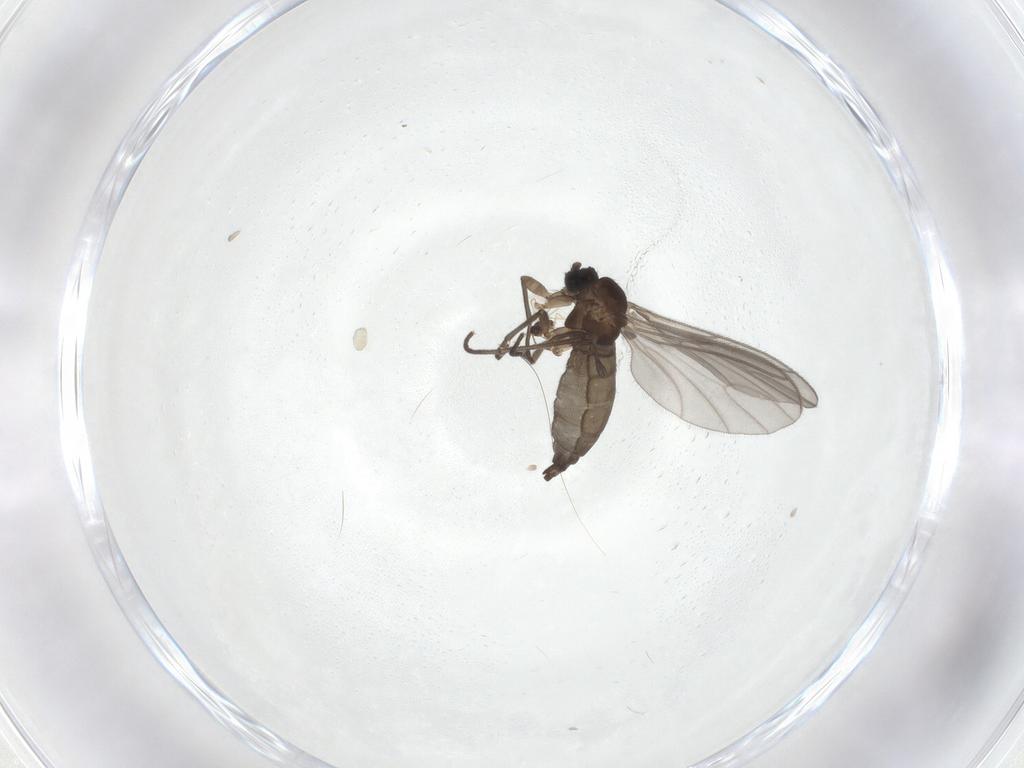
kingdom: Animalia
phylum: Arthropoda
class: Insecta
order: Diptera
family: Sciaridae
